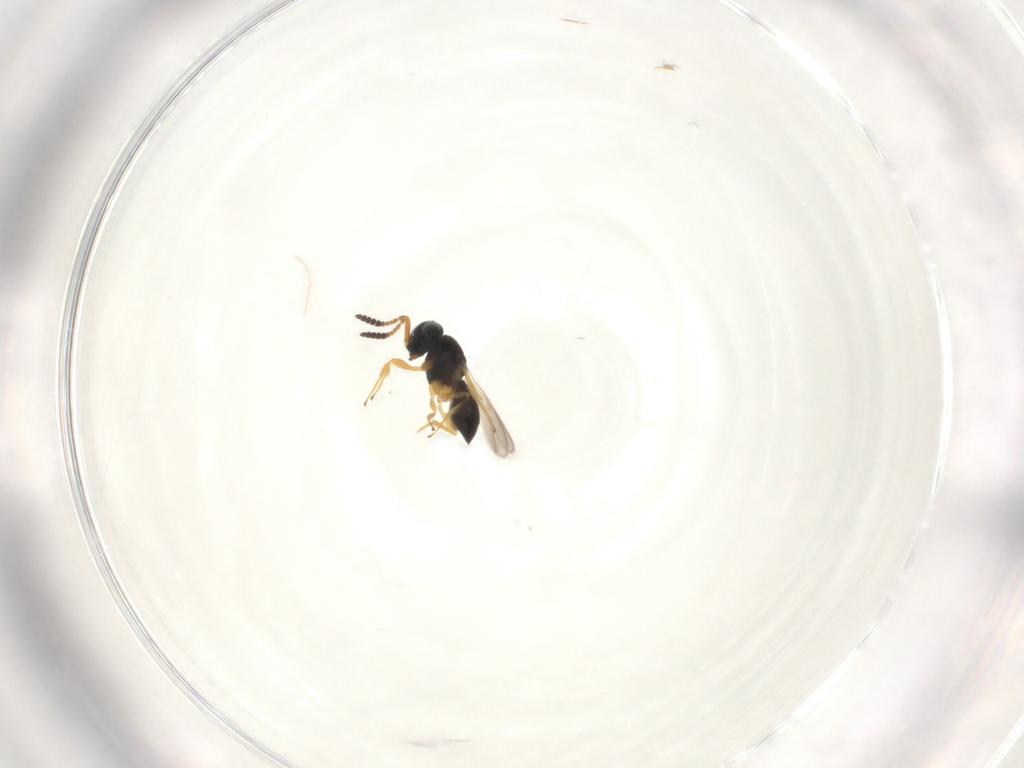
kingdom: Animalia
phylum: Arthropoda
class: Insecta
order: Hymenoptera
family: Scelionidae
